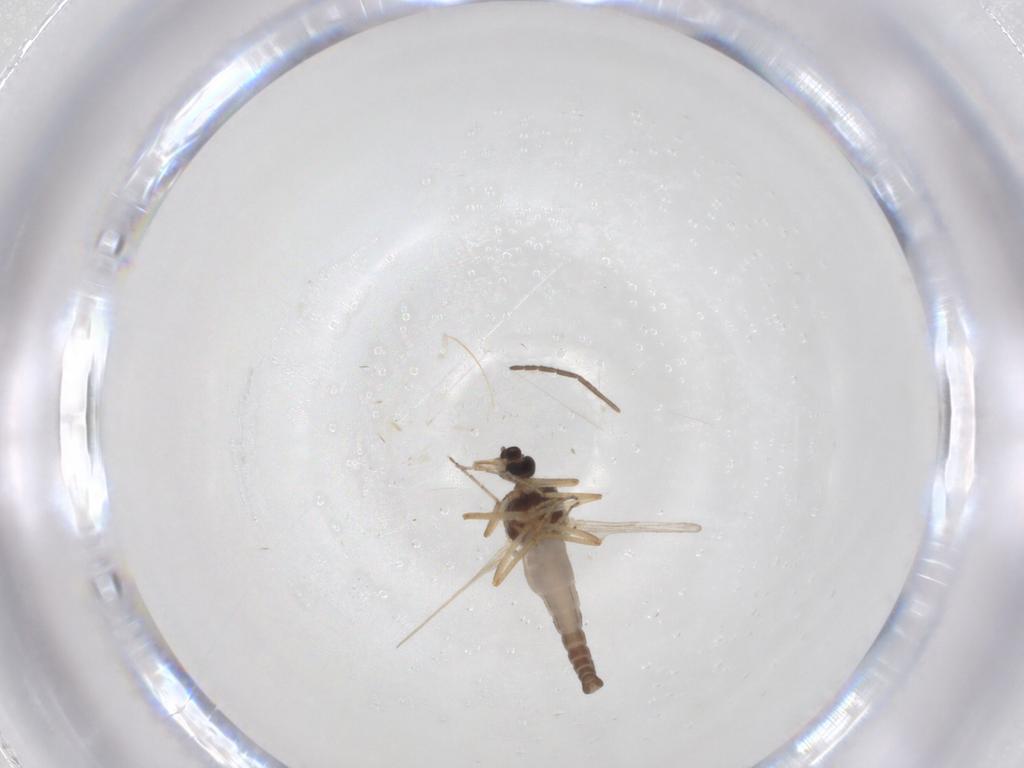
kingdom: Animalia
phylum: Arthropoda
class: Insecta
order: Diptera
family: Ceratopogonidae
